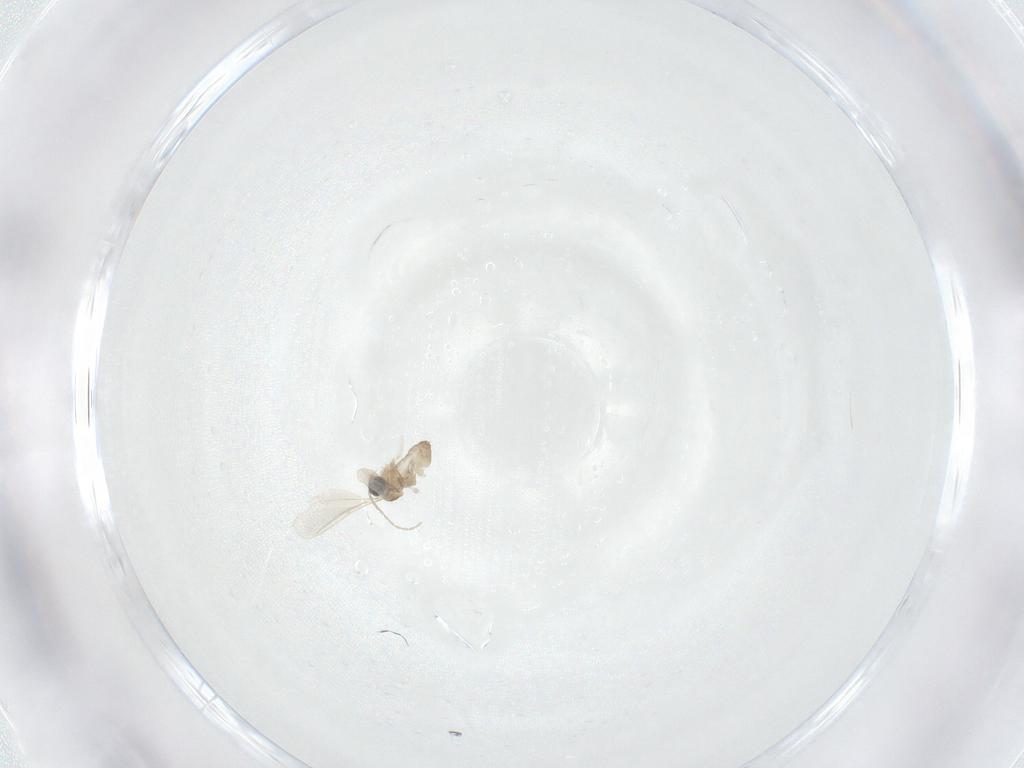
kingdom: Animalia
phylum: Arthropoda
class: Insecta
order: Diptera
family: Cecidomyiidae
